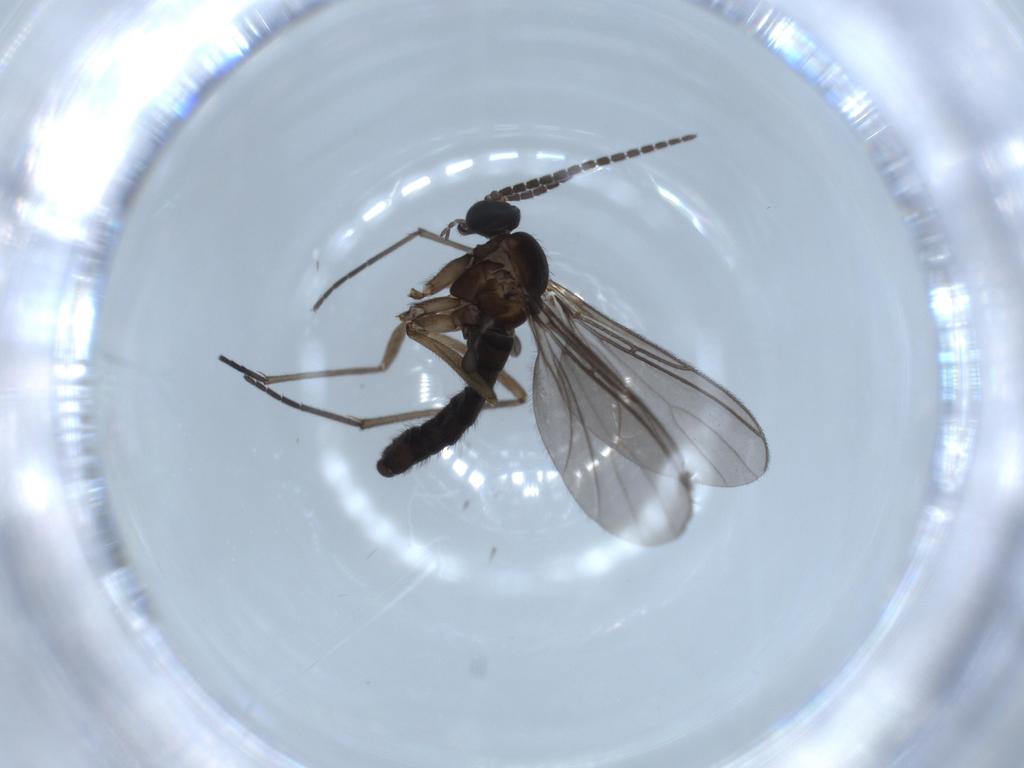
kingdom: Animalia
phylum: Arthropoda
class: Insecta
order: Diptera
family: Sciaridae
